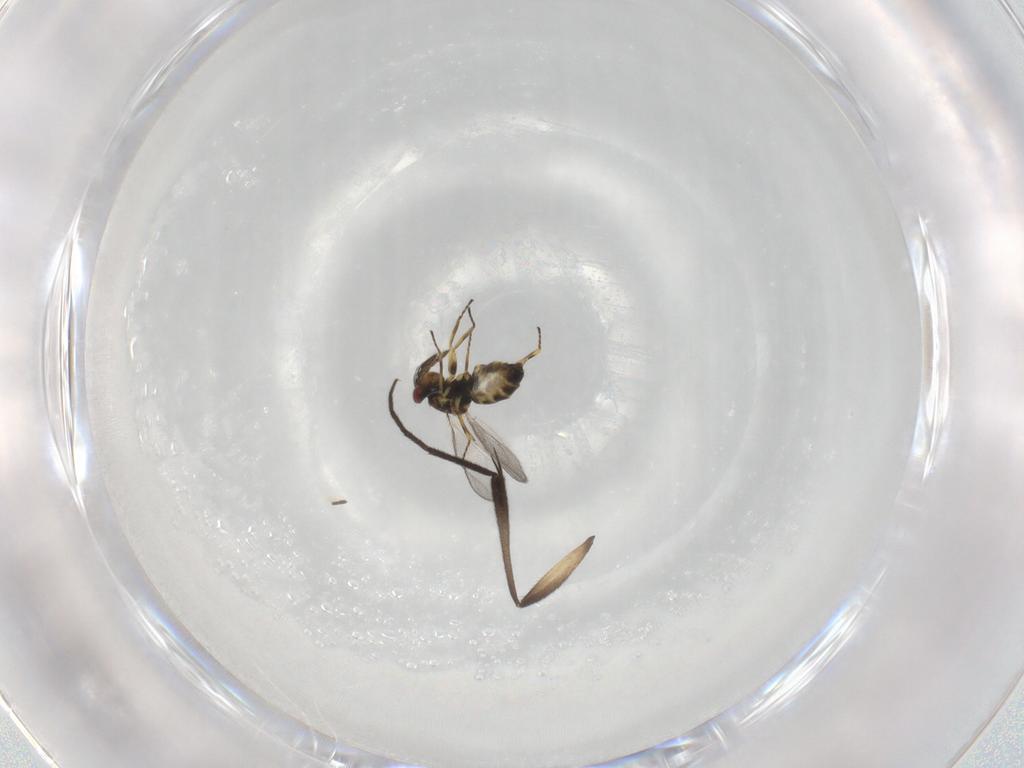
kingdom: Animalia
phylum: Arthropoda
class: Insecta
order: Hymenoptera
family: Eulophidae
